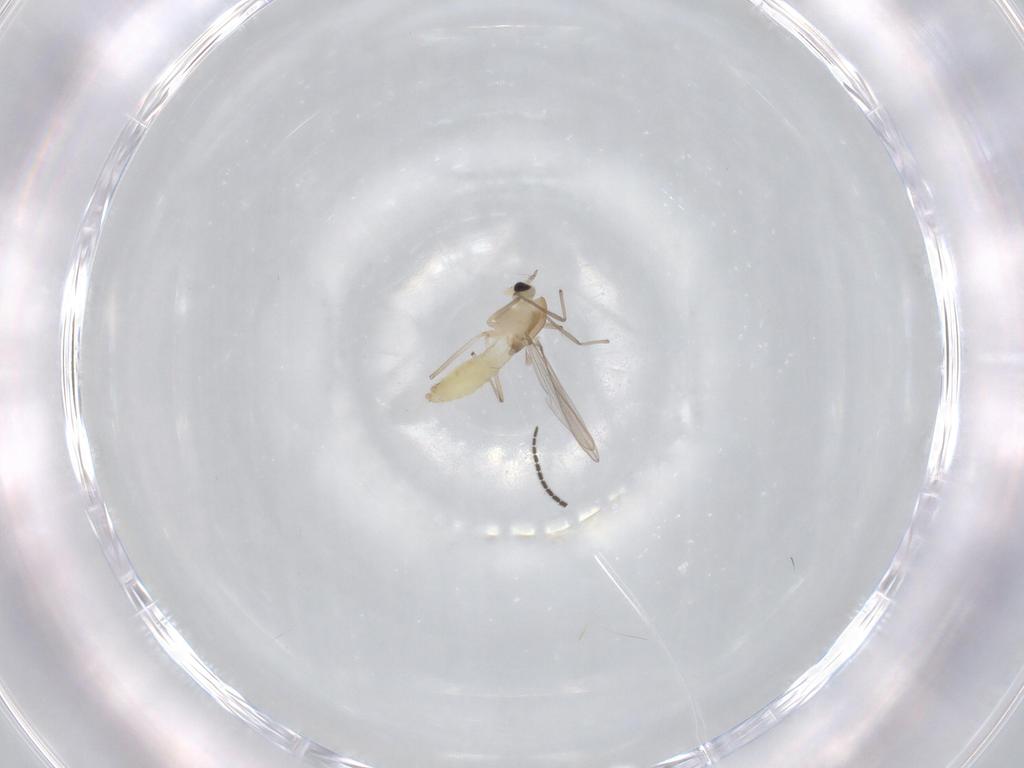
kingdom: Animalia
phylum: Arthropoda
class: Insecta
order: Diptera
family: Chironomidae
